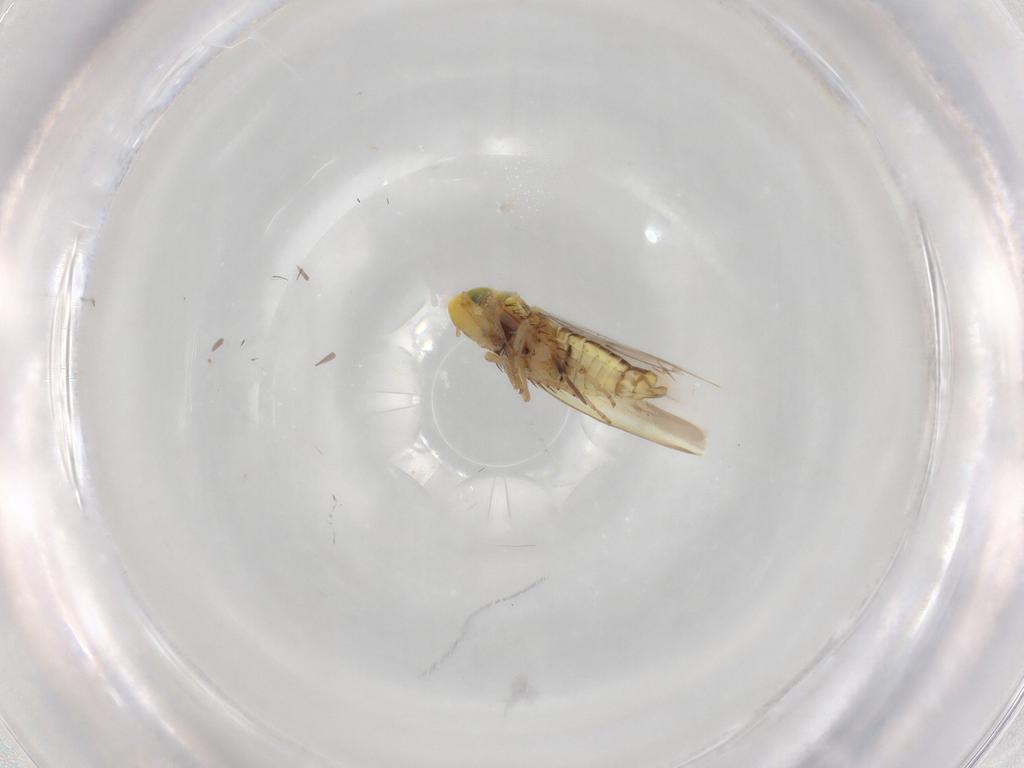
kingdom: Animalia
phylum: Arthropoda
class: Insecta
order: Hemiptera
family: Cicadellidae
